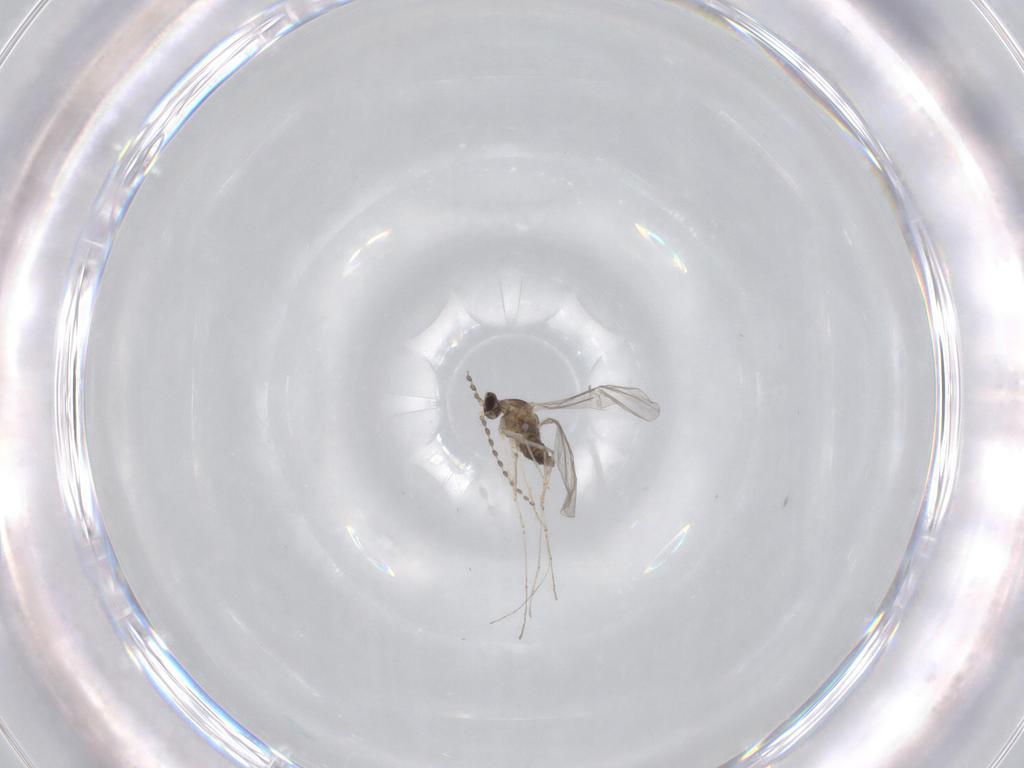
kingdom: Animalia
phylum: Arthropoda
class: Insecta
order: Diptera
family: Cecidomyiidae
